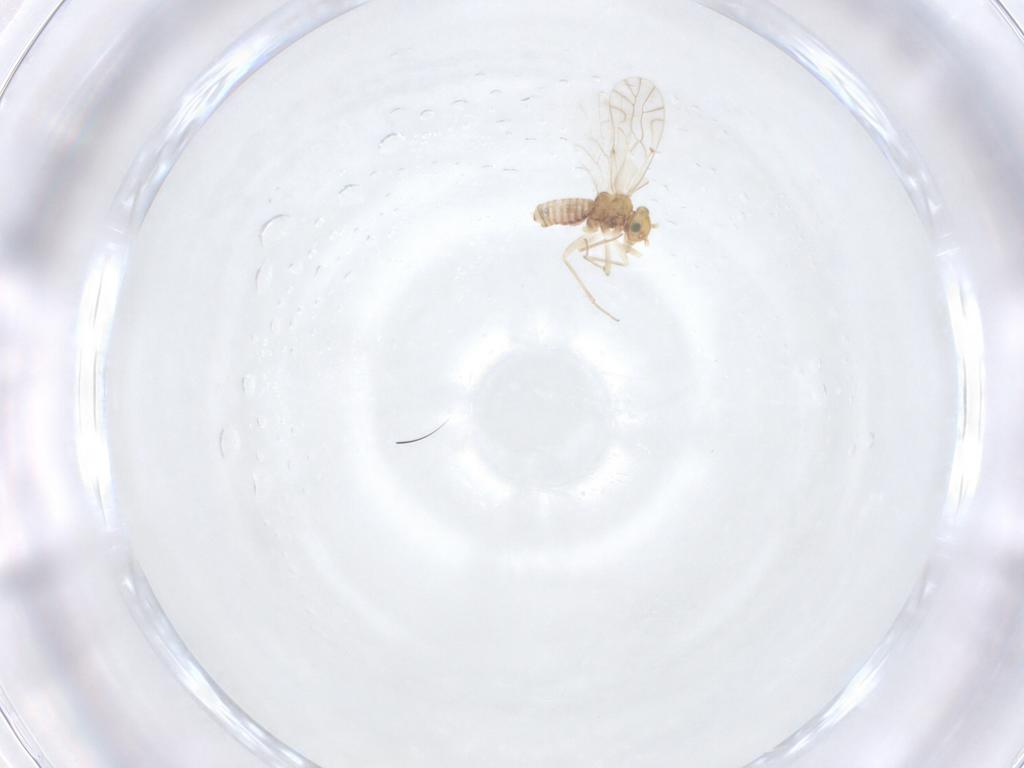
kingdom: Animalia
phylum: Arthropoda
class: Insecta
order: Psocodea
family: Lachesillidae
